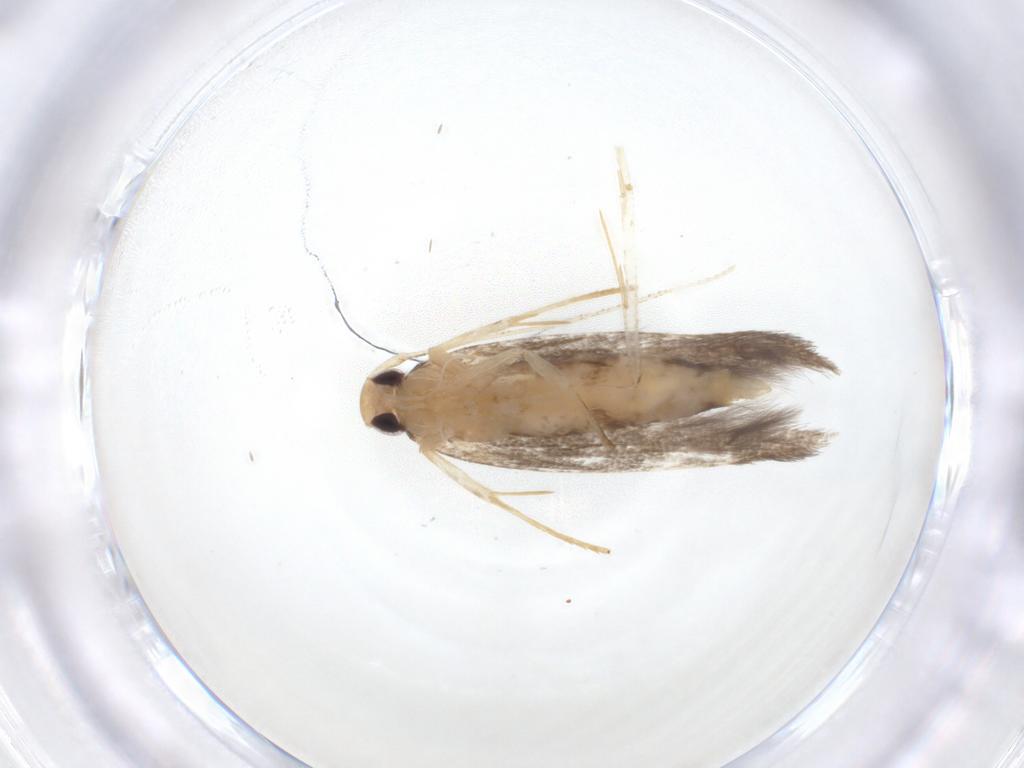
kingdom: Animalia
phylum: Arthropoda
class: Insecta
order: Lepidoptera
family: Cosmopterigidae
